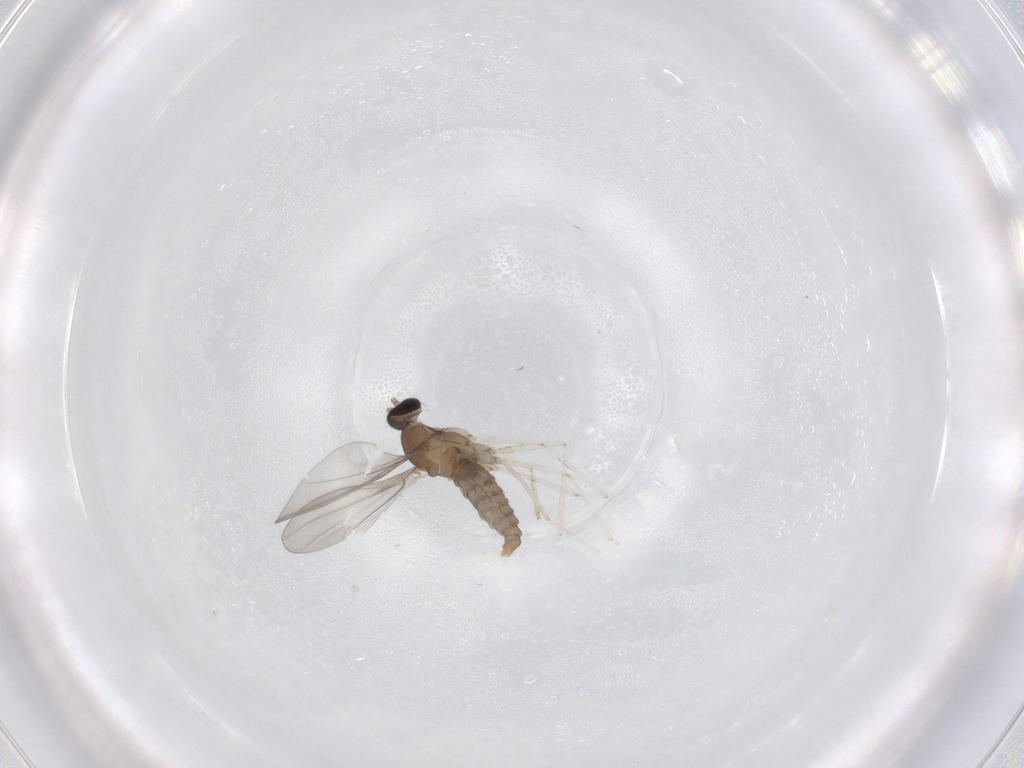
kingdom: Animalia
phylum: Arthropoda
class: Insecta
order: Diptera
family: Cecidomyiidae
